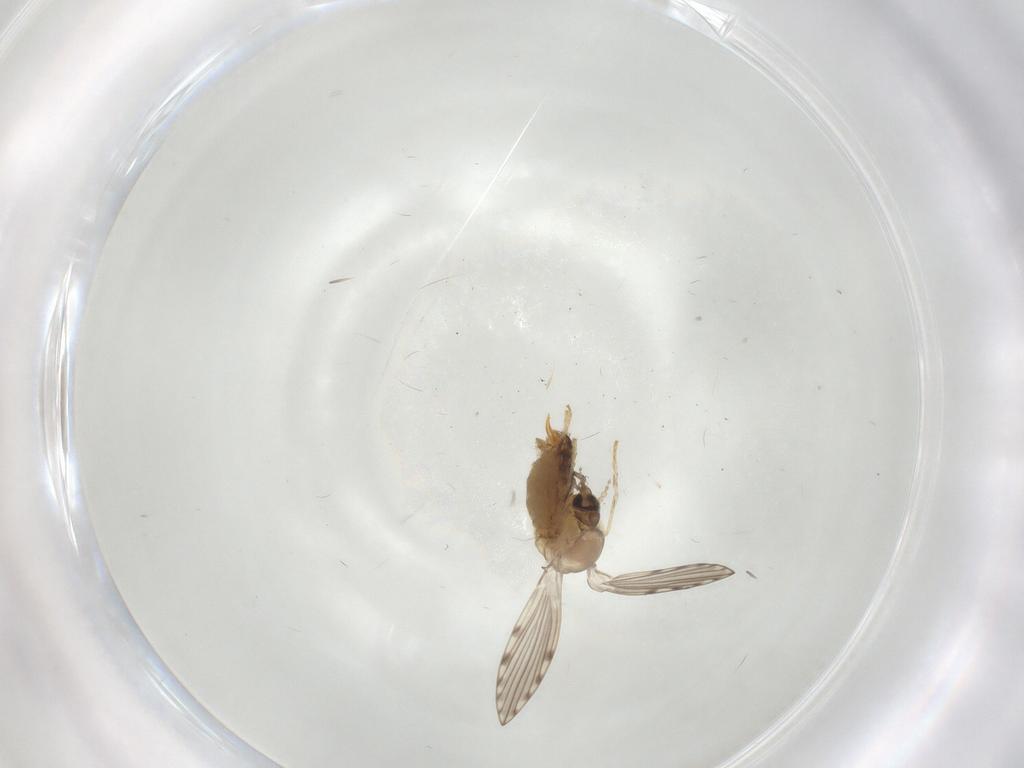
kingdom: Animalia
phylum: Arthropoda
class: Insecta
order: Diptera
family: Psychodidae
